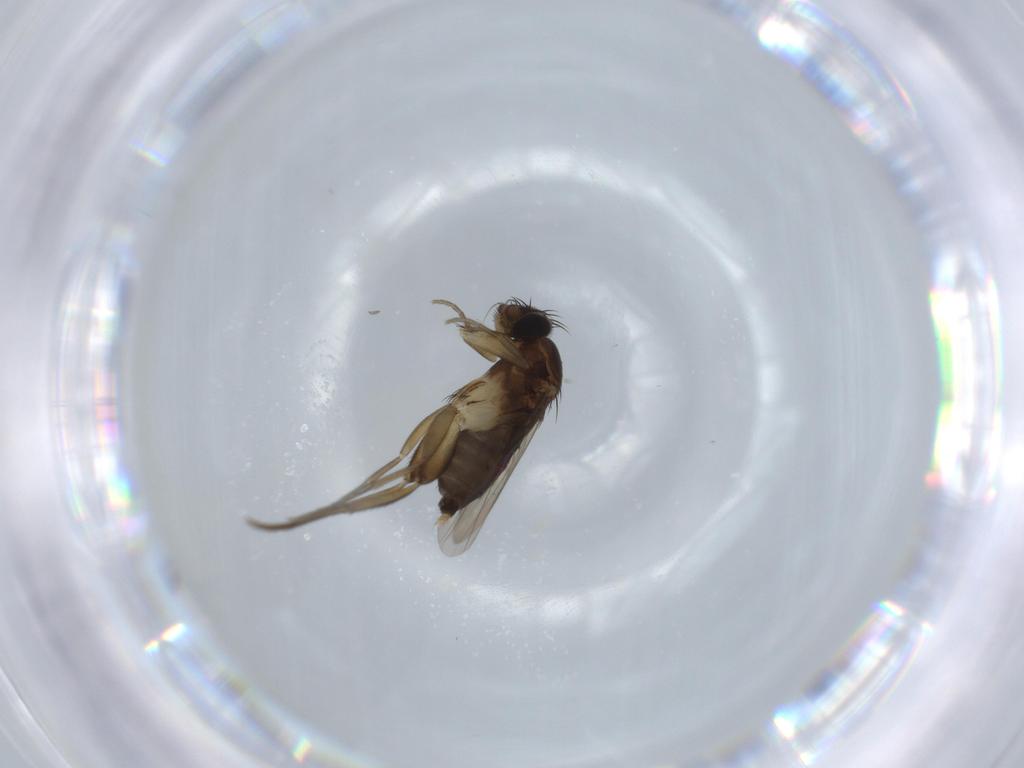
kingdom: Animalia
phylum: Arthropoda
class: Insecta
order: Diptera
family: Phoridae
